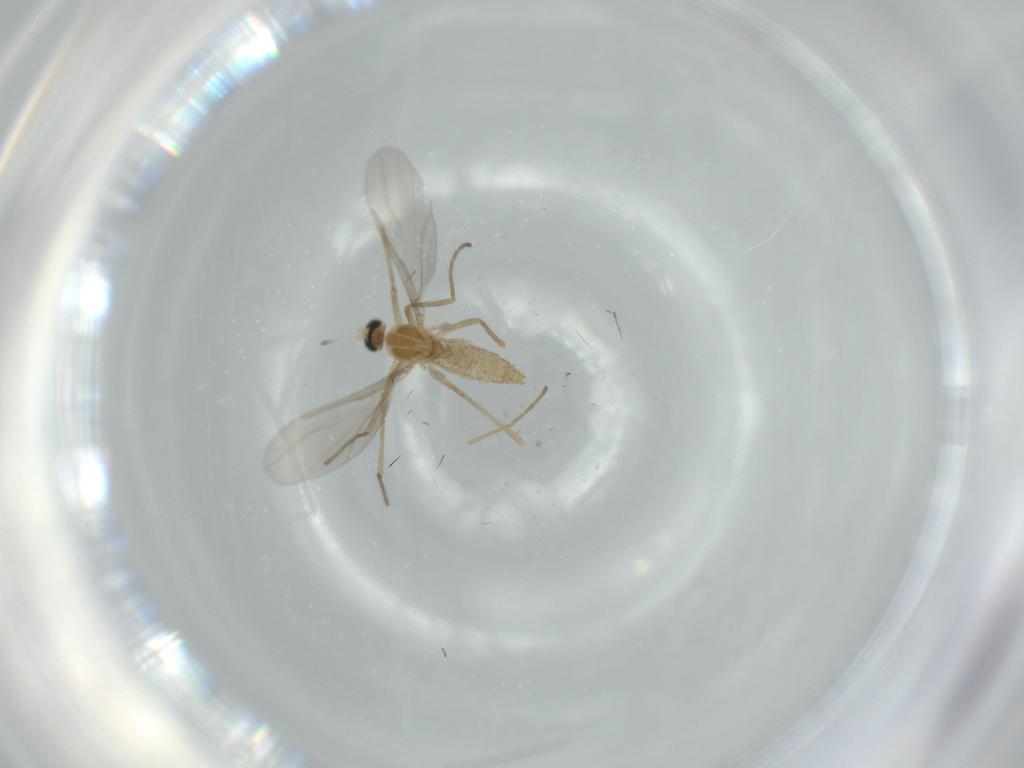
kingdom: Animalia
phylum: Arthropoda
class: Insecta
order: Diptera
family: Cecidomyiidae
